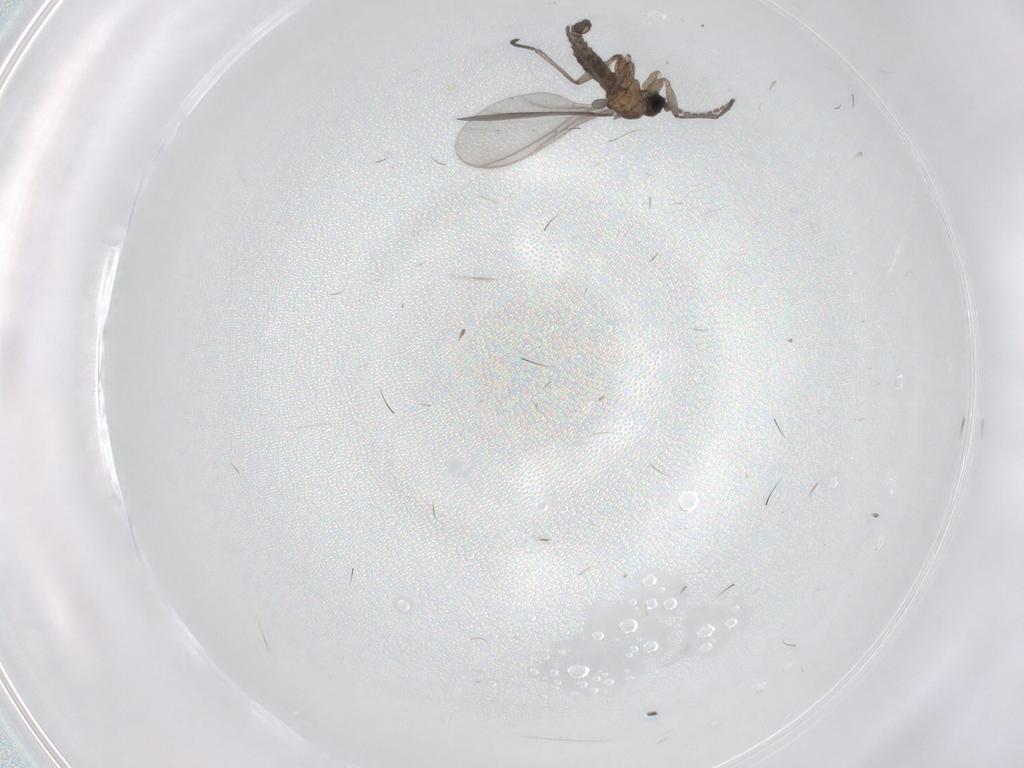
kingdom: Animalia
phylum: Arthropoda
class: Insecta
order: Diptera
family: Sciaridae
